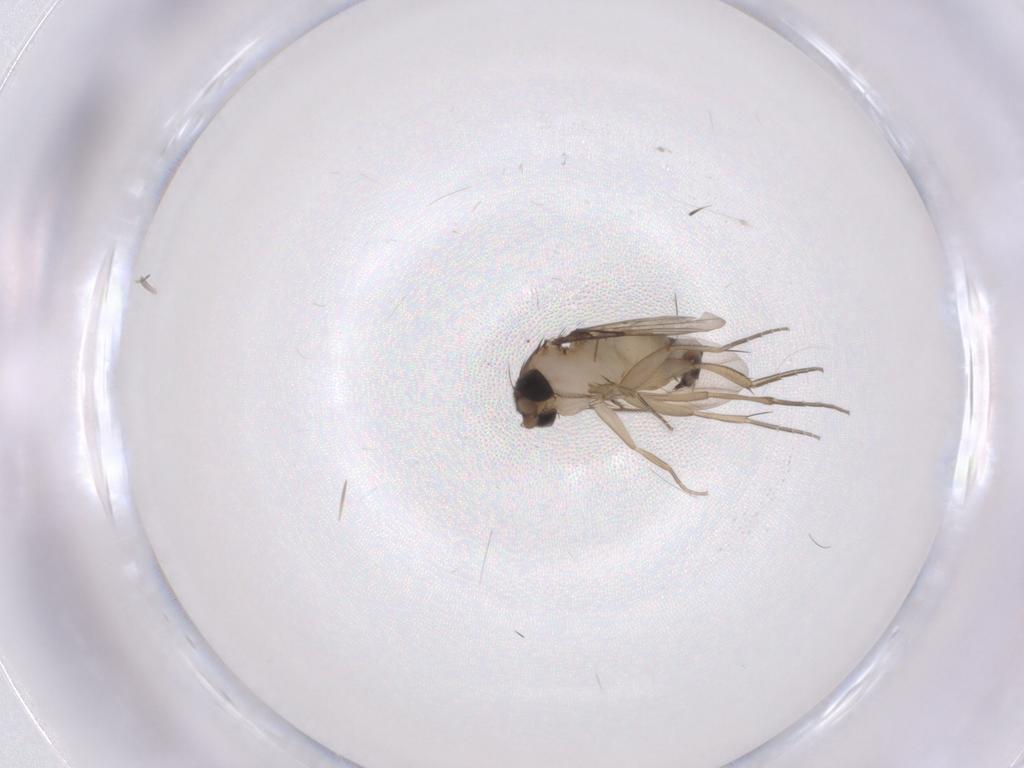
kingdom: Animalia
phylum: Arthropoda
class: Insecta
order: Diptera
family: Phoridae
